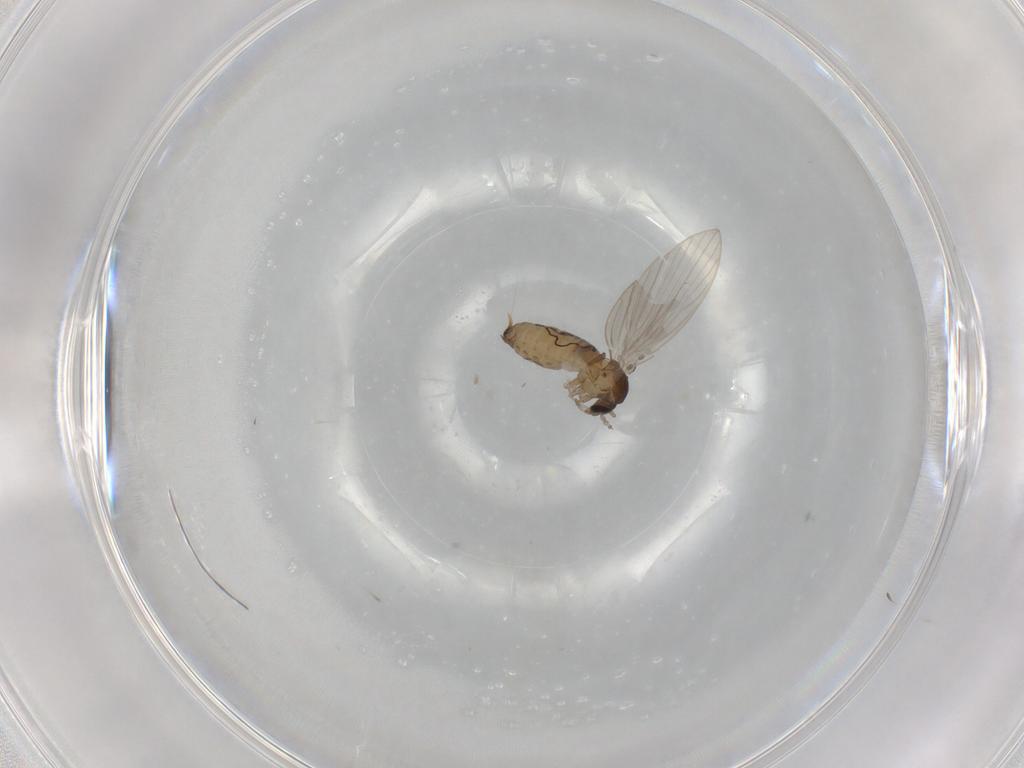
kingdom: Animalia
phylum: Arthropoda
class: Insecta
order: Diptera
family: Psychodidae
